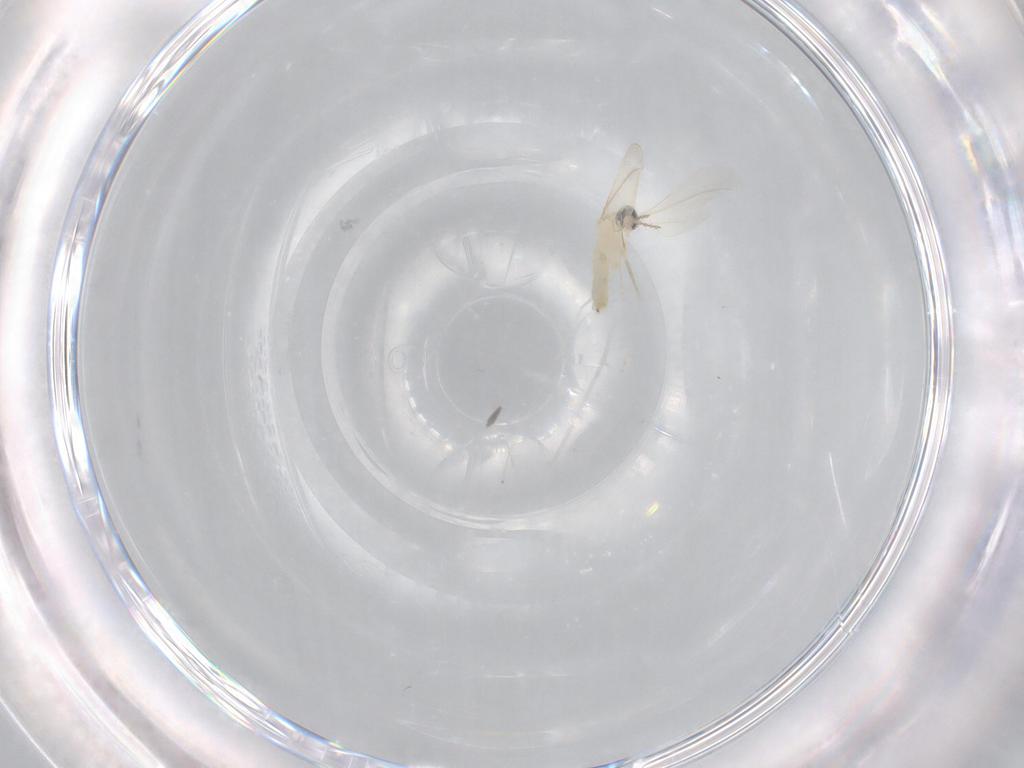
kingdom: Animalia
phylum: Arthropoda
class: Insecta
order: Diptera
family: Cecidomyiidae
